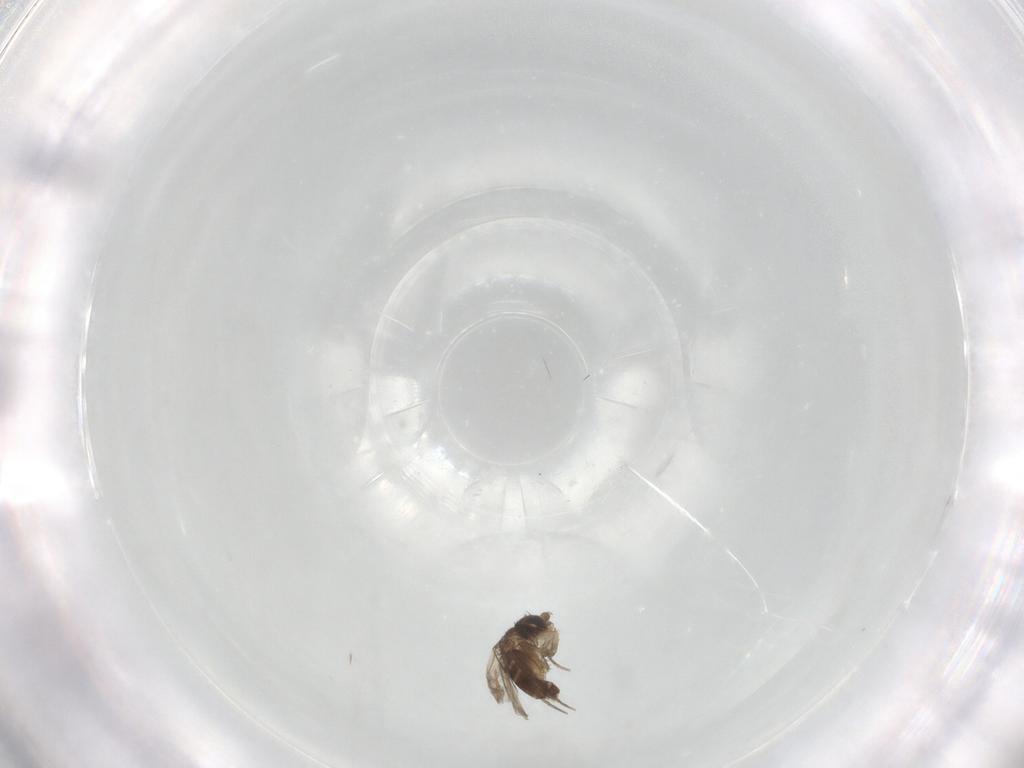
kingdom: Animalia
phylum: Arthropoda
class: Insecta
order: Diptera
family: Phoridae
